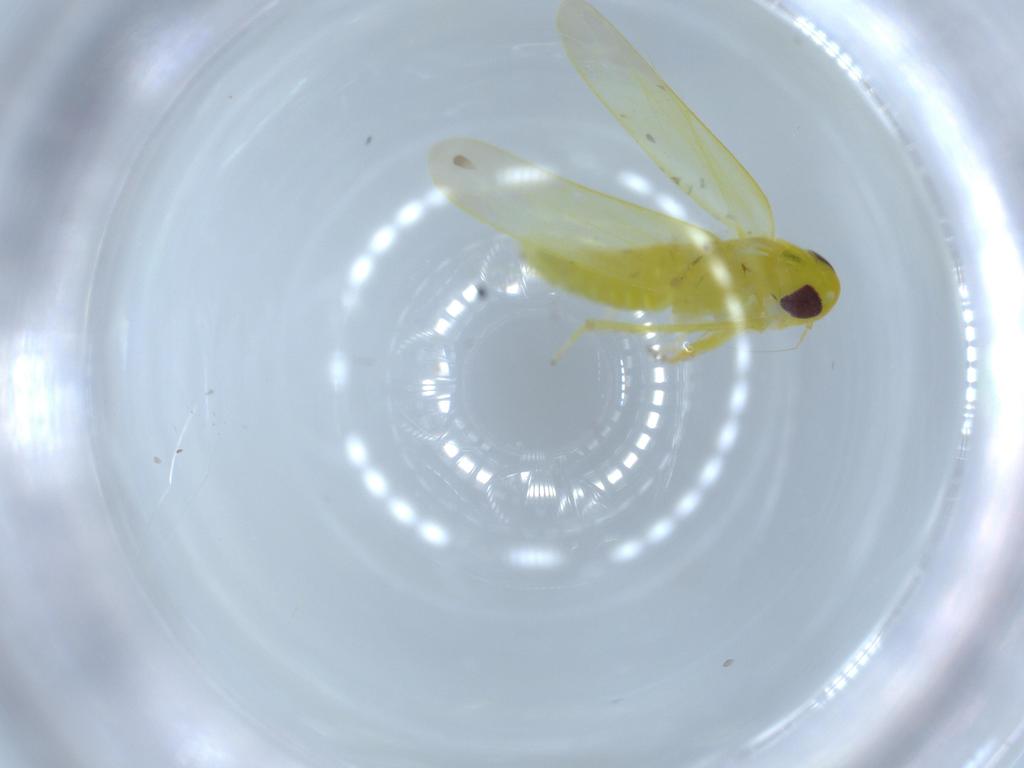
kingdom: Animalia
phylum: Arthropoda
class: Insecta
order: Hemiptera
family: Cicadellidae
